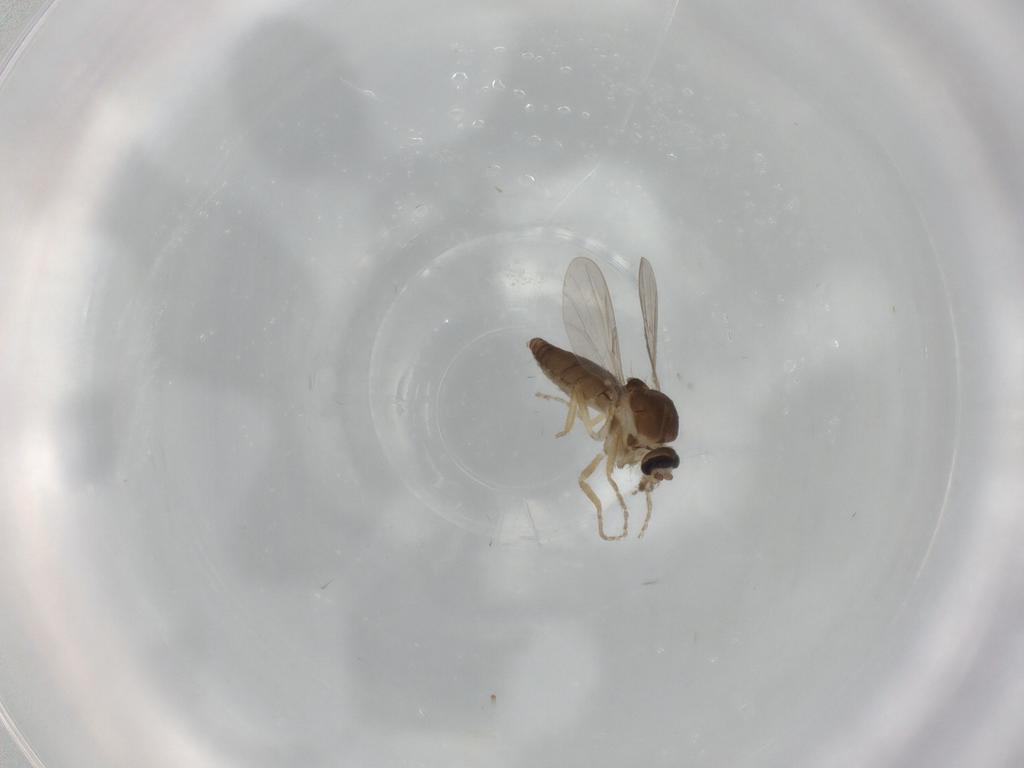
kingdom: Animalia
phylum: Arthropoda
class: Insecta
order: Diptera
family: Ceratopogonidae
